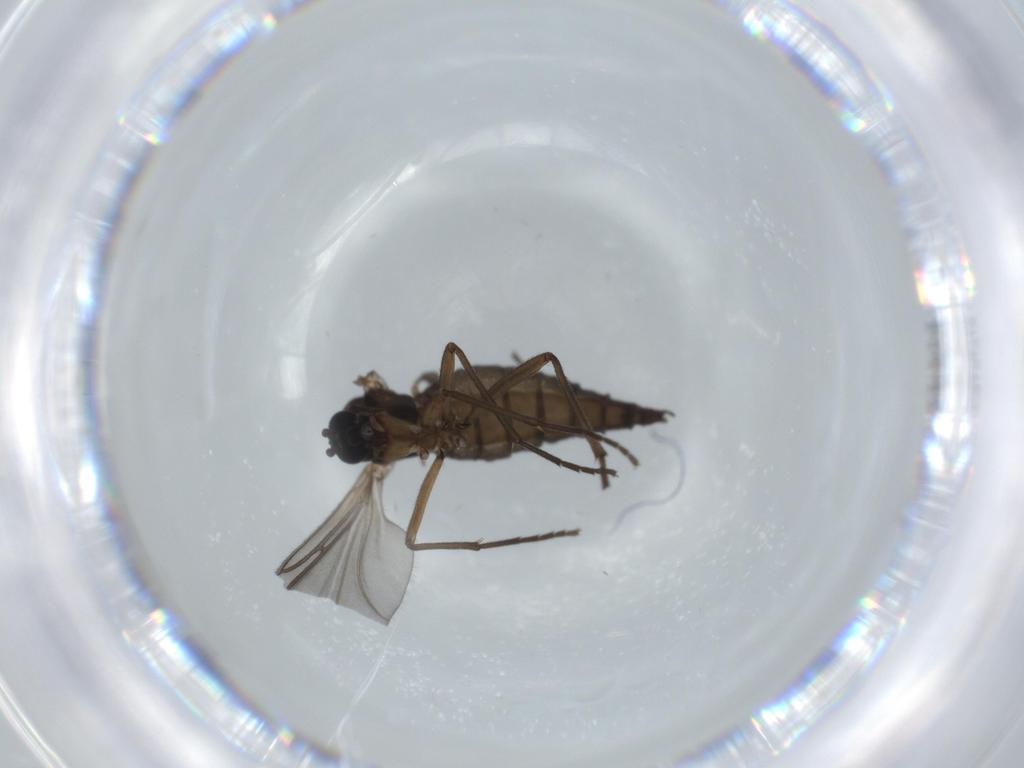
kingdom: Animalia
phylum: Arthropoda
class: Insecta
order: Diptera
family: Sciaridae
